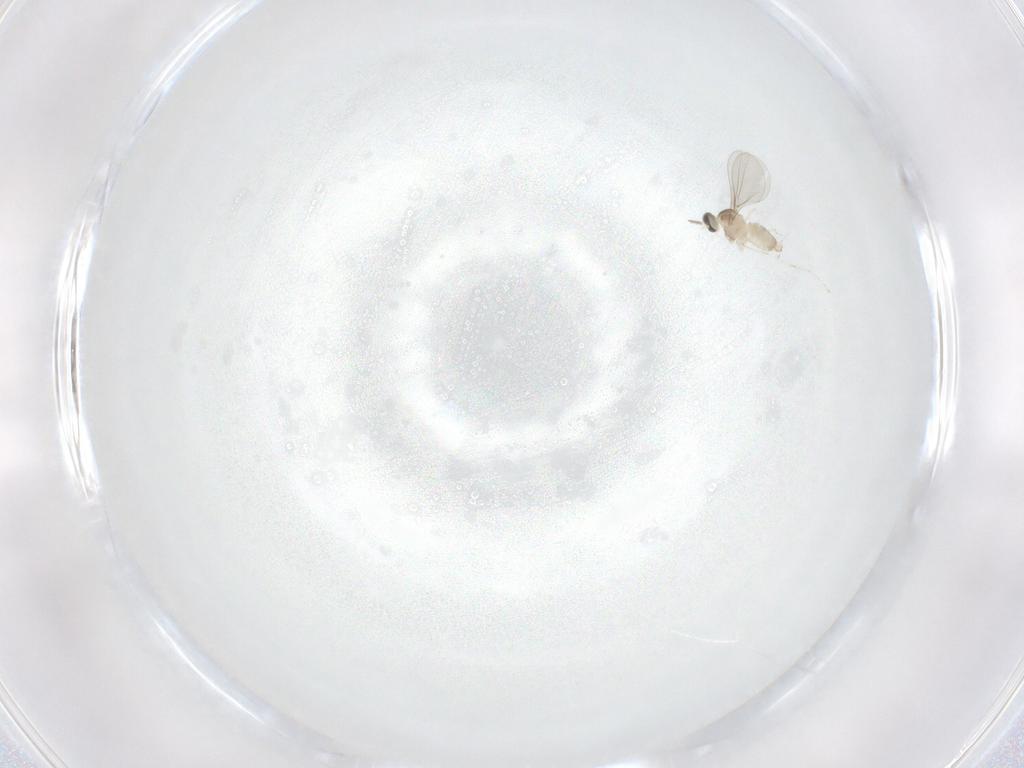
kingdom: Animalia
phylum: Arthropoda
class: Insecta
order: Diptera
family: Cecidomyiidae
